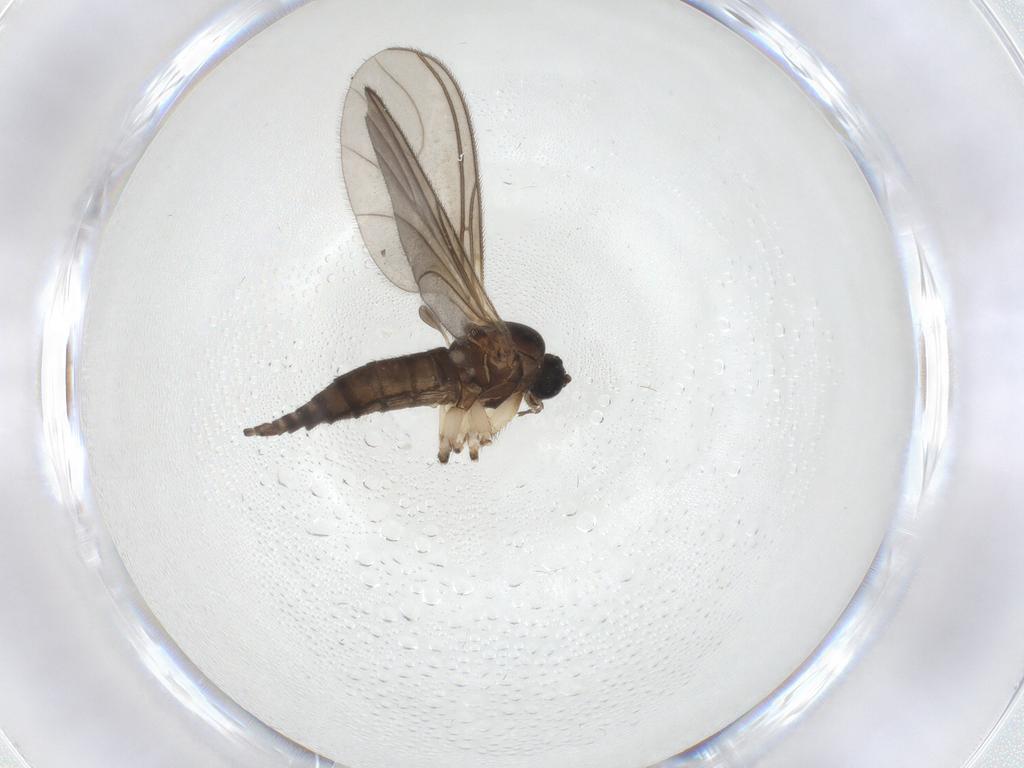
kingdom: Animalia
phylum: Arthropoda
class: Insecta
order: Diptera
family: Sciaridae
